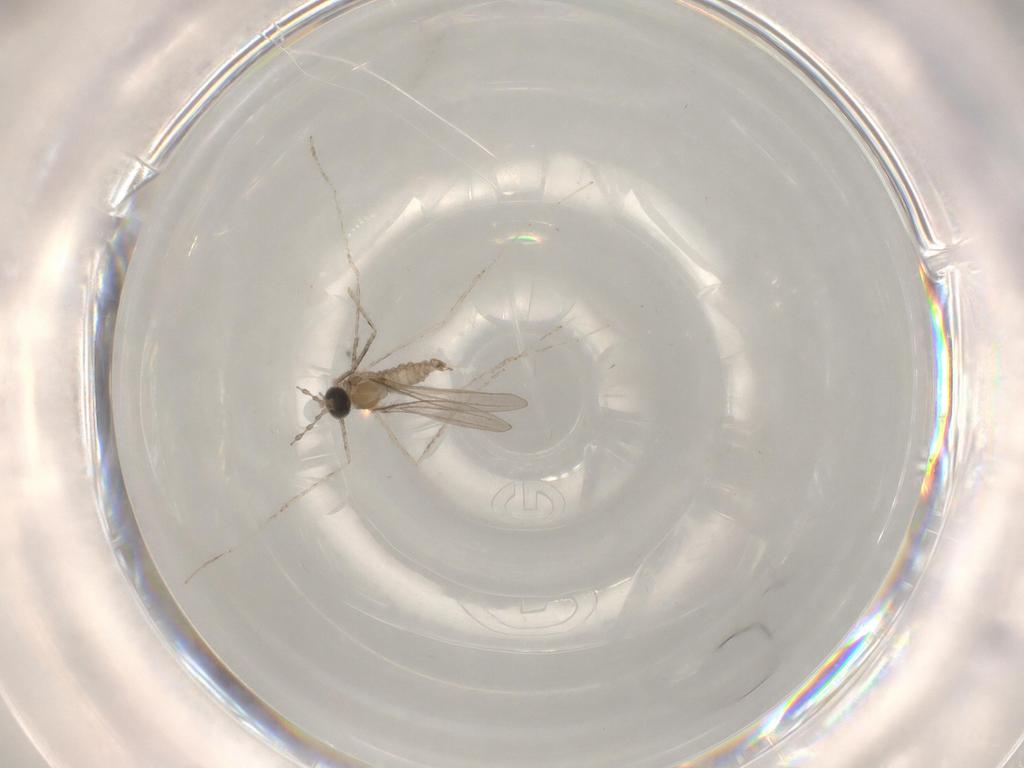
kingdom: Animalia
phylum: Arthropoda
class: Insecta
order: Diptera
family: Cecidomyiidae
